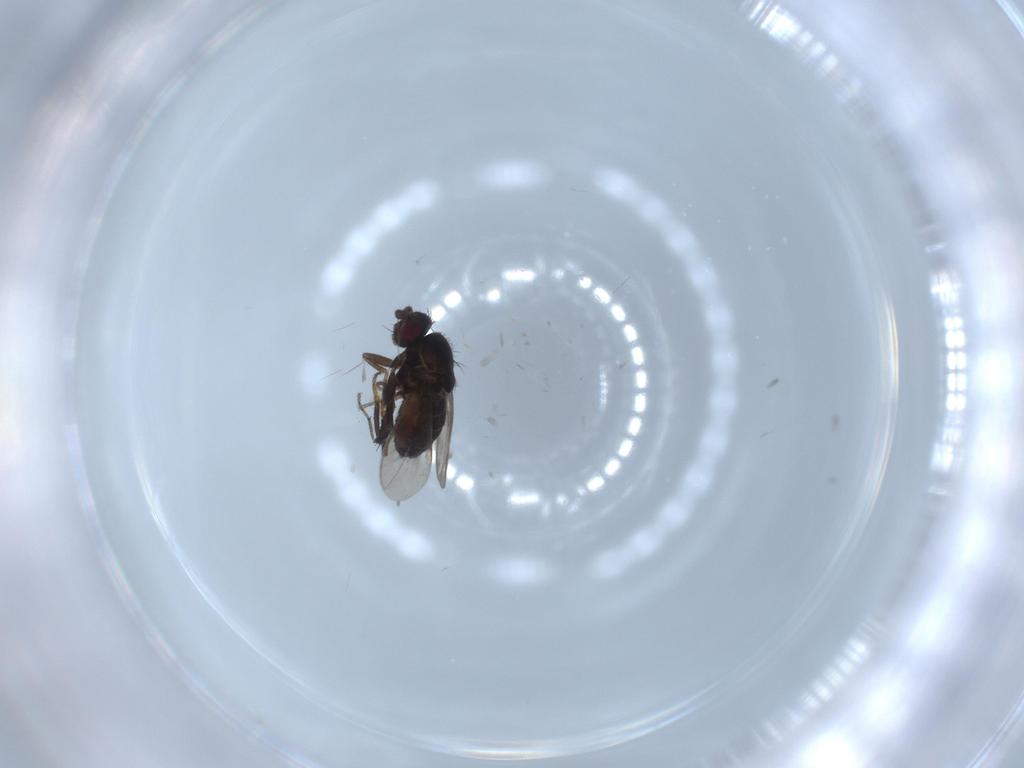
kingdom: Animalia
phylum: Arthropoda
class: Insecta
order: Diptera
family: Sphaeroceridae
